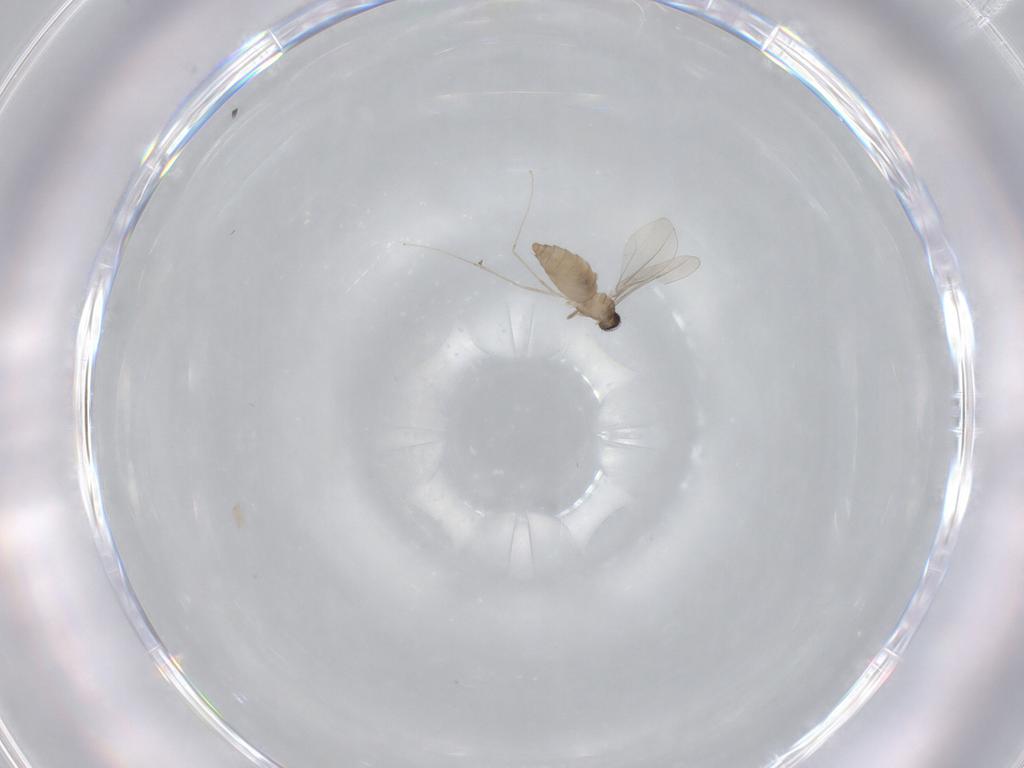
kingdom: Animalia
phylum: Arthropoda
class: Insecta
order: Diptera
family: Cecidomyiidae
